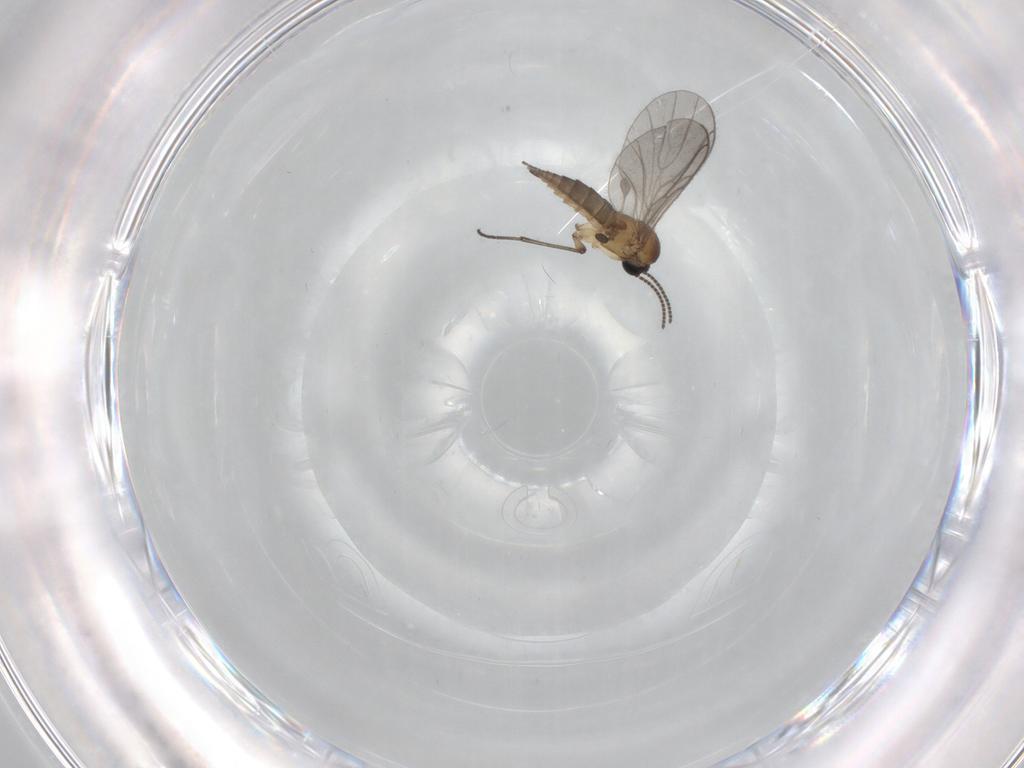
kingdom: Animalia
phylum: Arthropoda
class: Insecta
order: Diptera
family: Sciaridae
